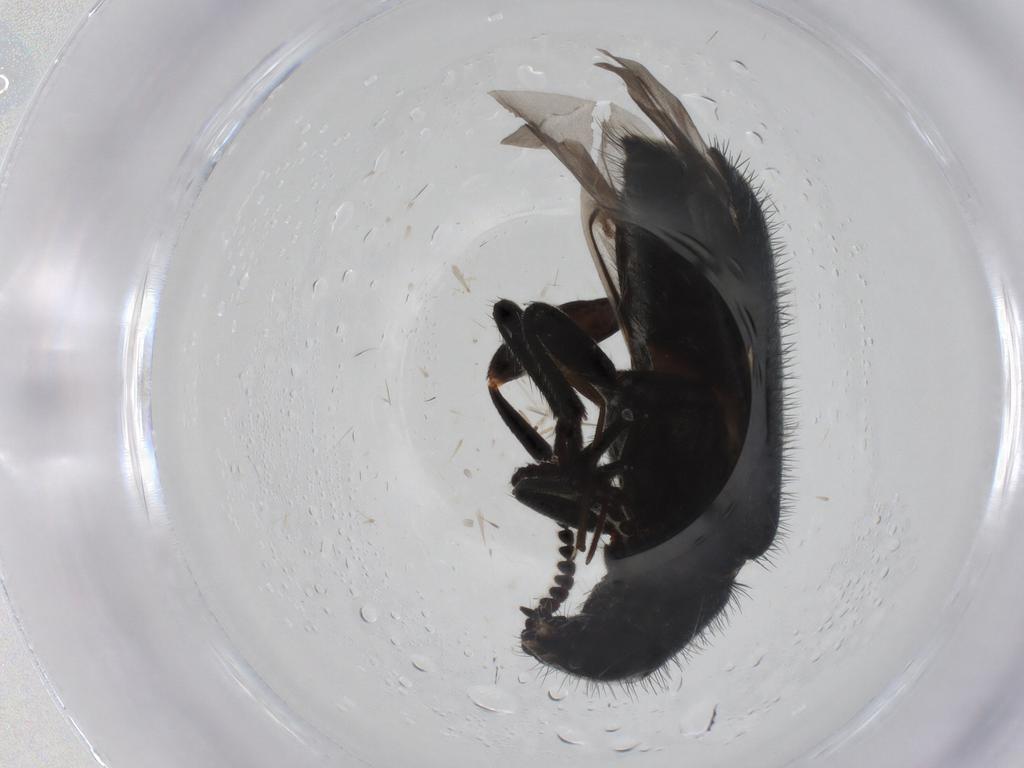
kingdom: Animalia
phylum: Arthropoda
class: Insecta
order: Coleoptera
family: Melyridae
